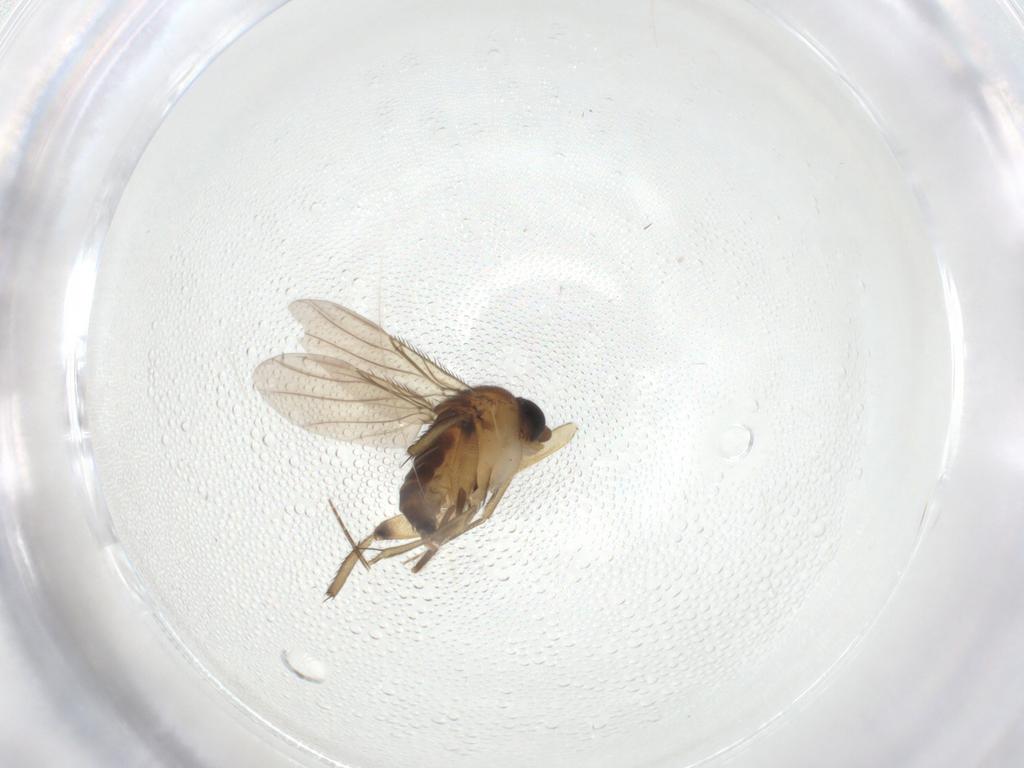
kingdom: Animalia
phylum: Arthropoda
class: Insecta
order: Diptera
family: Phoridae
